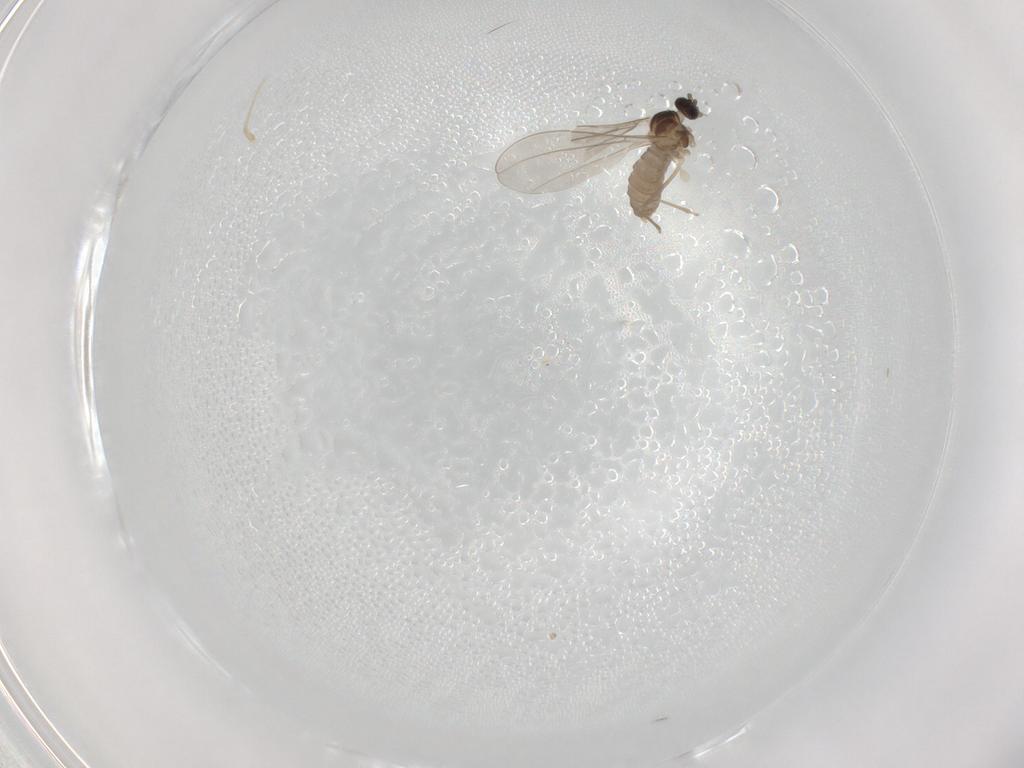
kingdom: Animalia
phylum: Arthropoda
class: Insecta
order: Diptera
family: Cecidomyiidae
